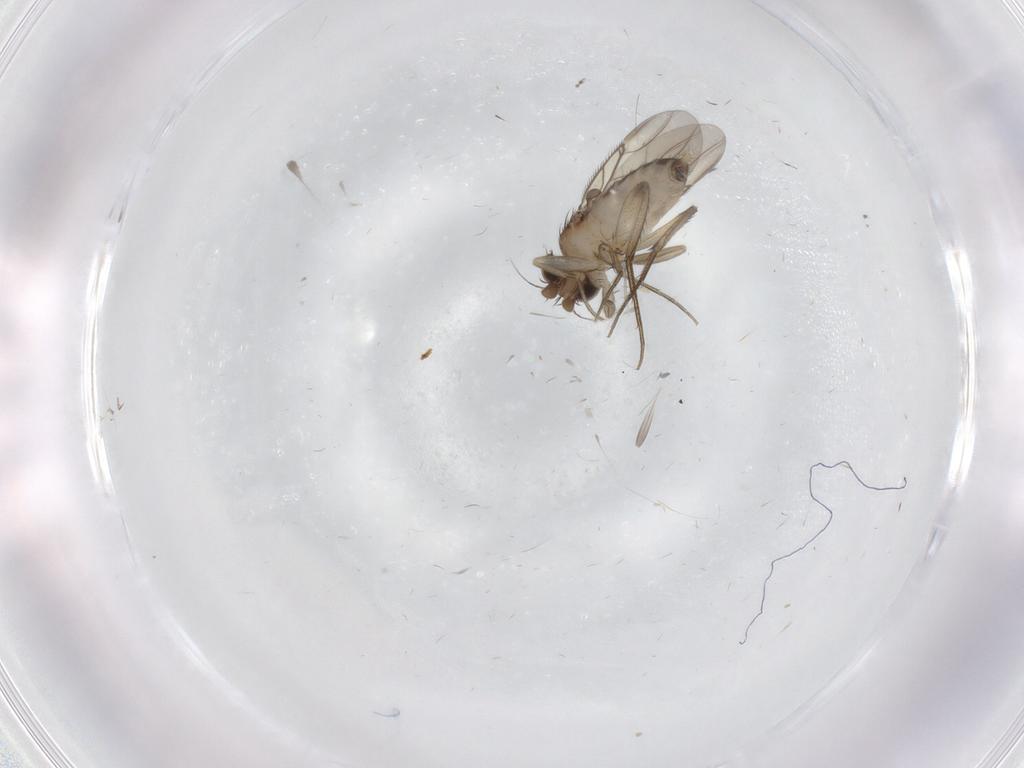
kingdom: Animalia
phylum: Arthropoda
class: Insecta
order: Diptera
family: Phoridae
